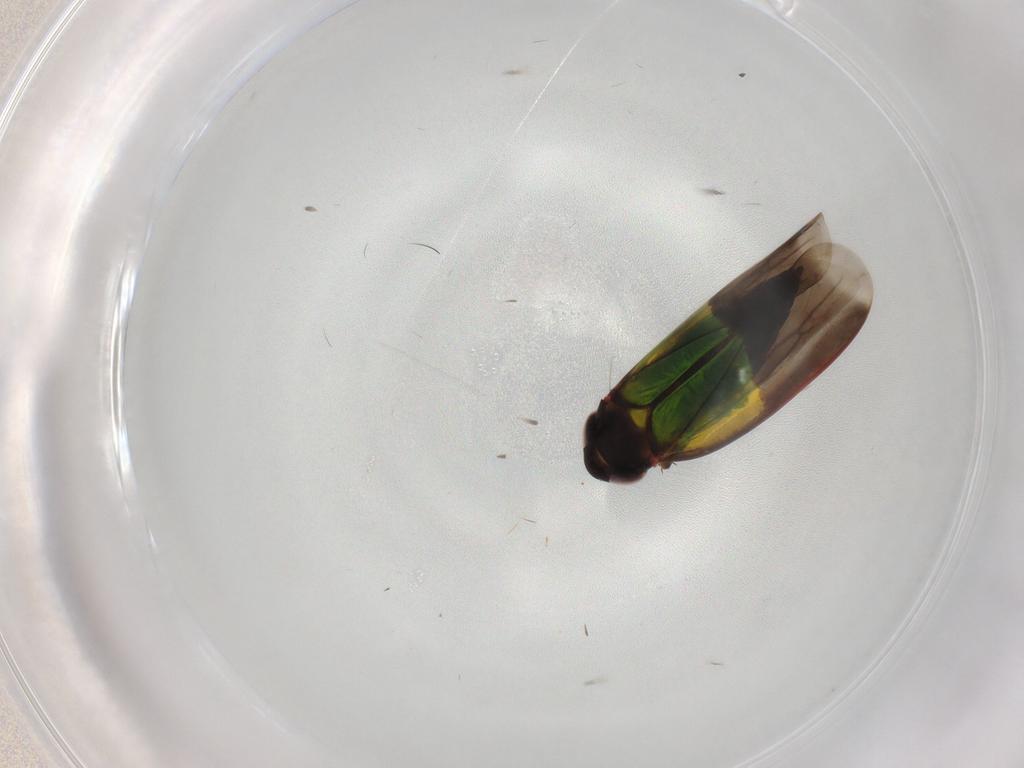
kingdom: Animalia
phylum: Arthropoda
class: Insecta
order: Hemiptera
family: Cicadellidae
